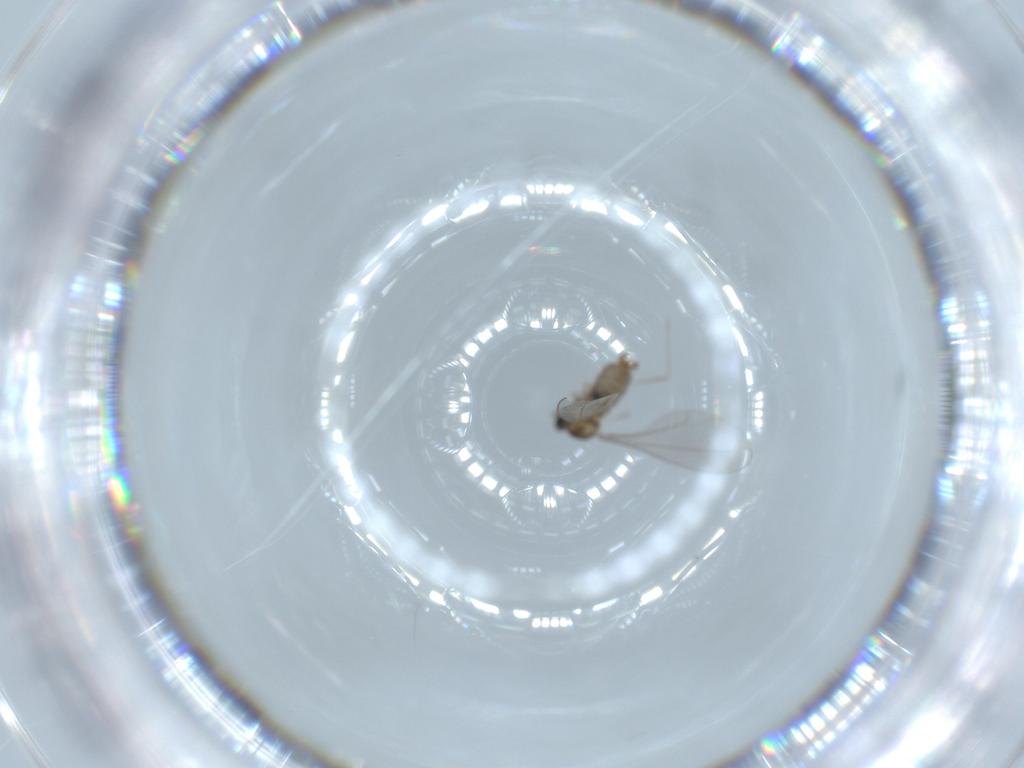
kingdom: Animalia
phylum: Arthropoda
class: Insecta
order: Diptera
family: Cecidomyiidae
